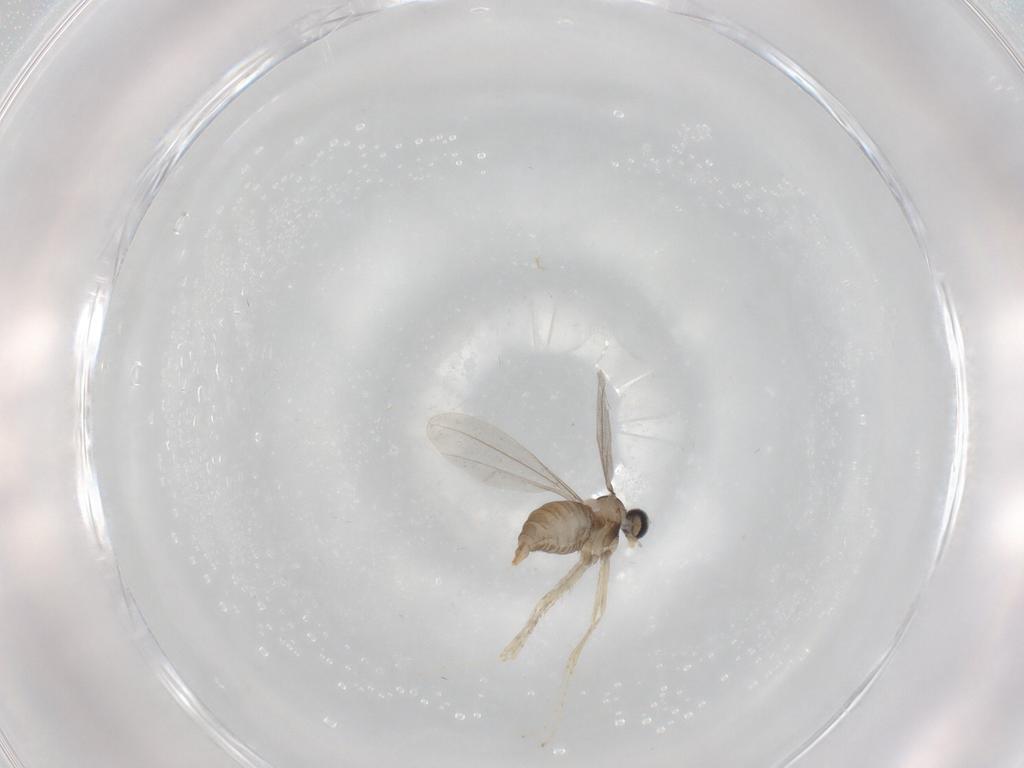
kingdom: Animalia
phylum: Arthropoda
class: Insecta
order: Diptera
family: Cecidomyiidae
